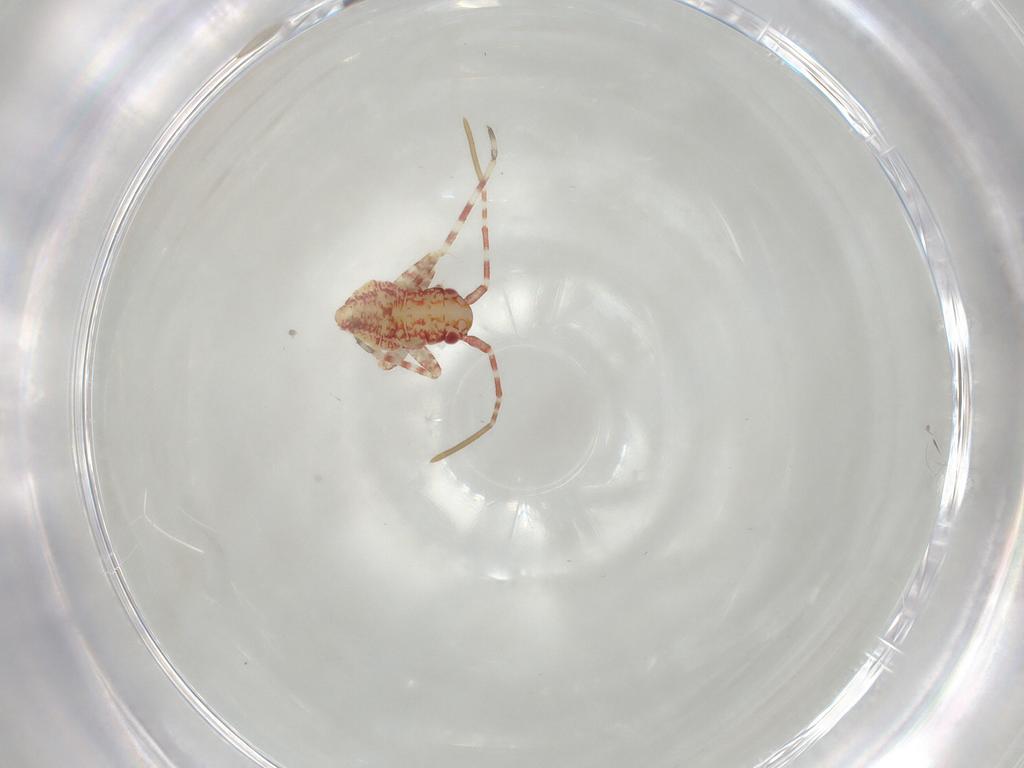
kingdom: Animalia
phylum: Arthropoda
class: Insecta
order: Hemiptera
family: Miridae
